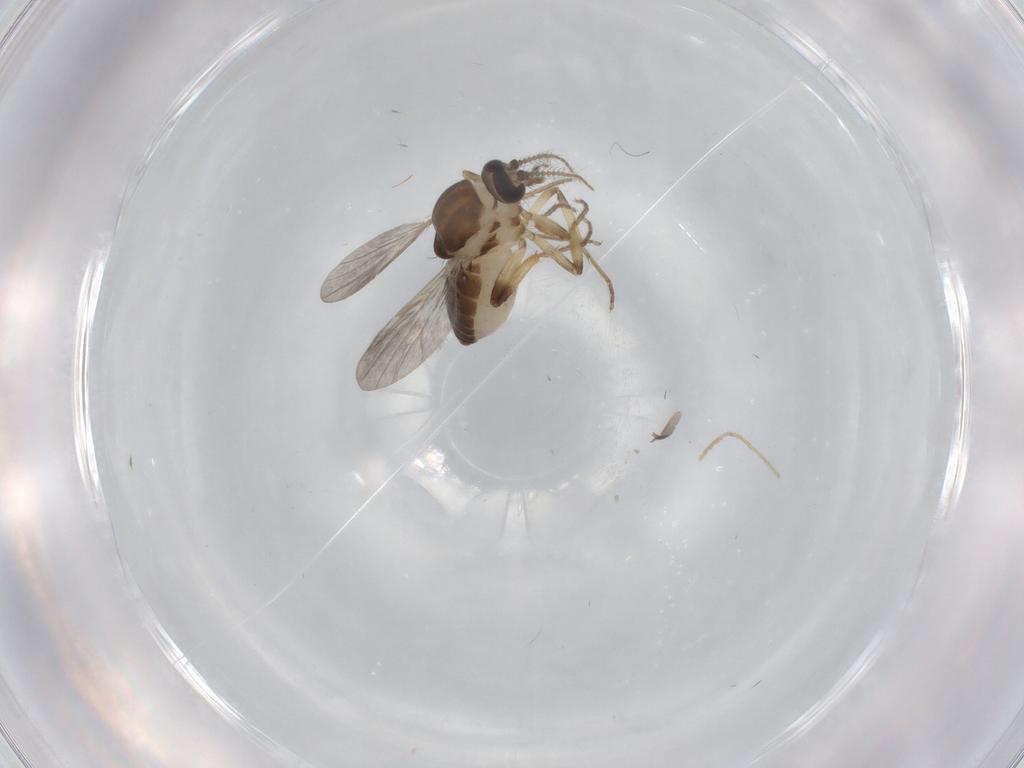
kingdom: Animalia
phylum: Arthropoda
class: Insecta
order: Diptera
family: Ceratopogonidae
